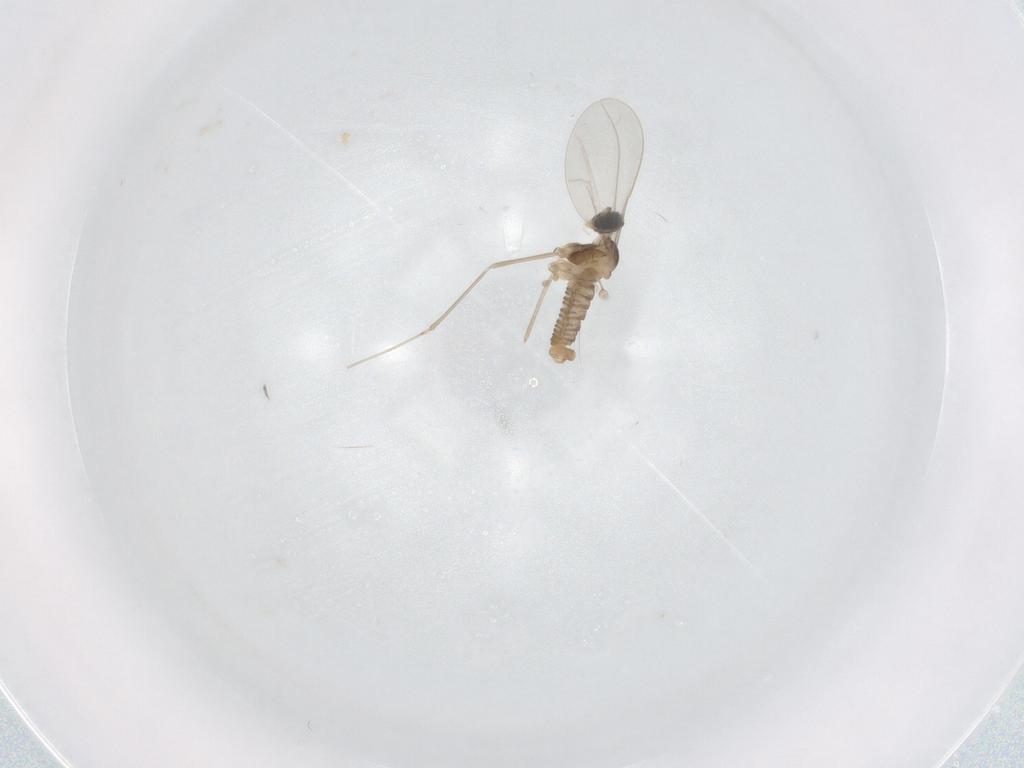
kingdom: Animalia
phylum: Arthropoda
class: Insecta
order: Diptera
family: Cecidomyiidae
